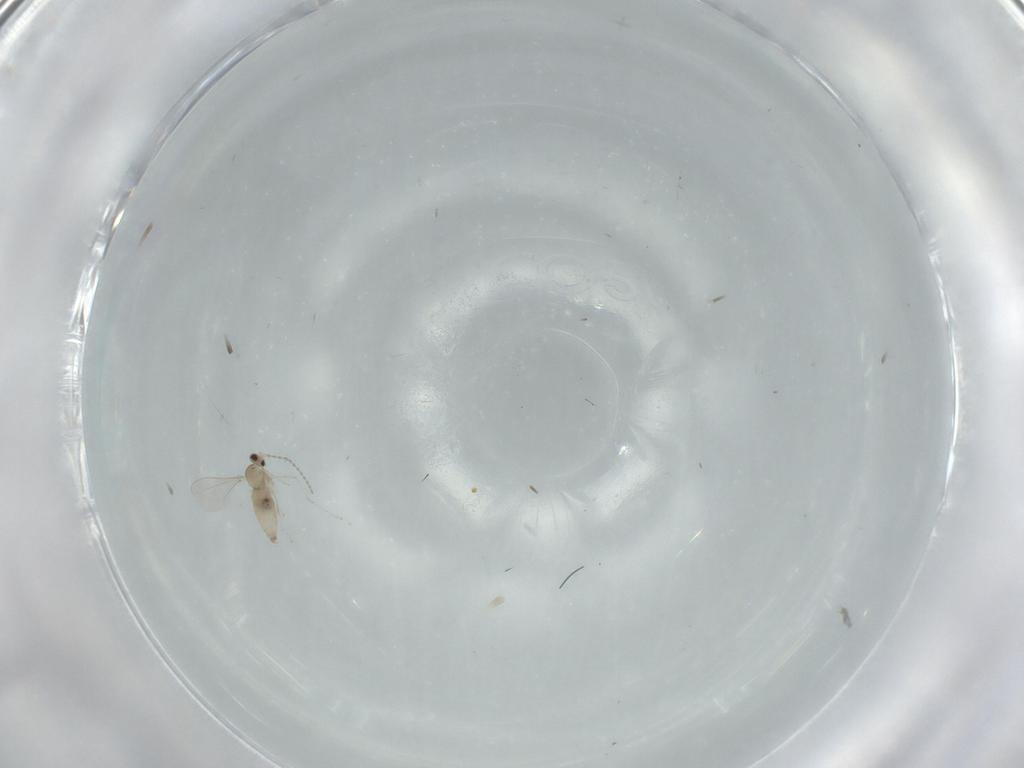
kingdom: Animalia
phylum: Arthropoda
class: Insecta
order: Diptera
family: Cecidomyiidae
